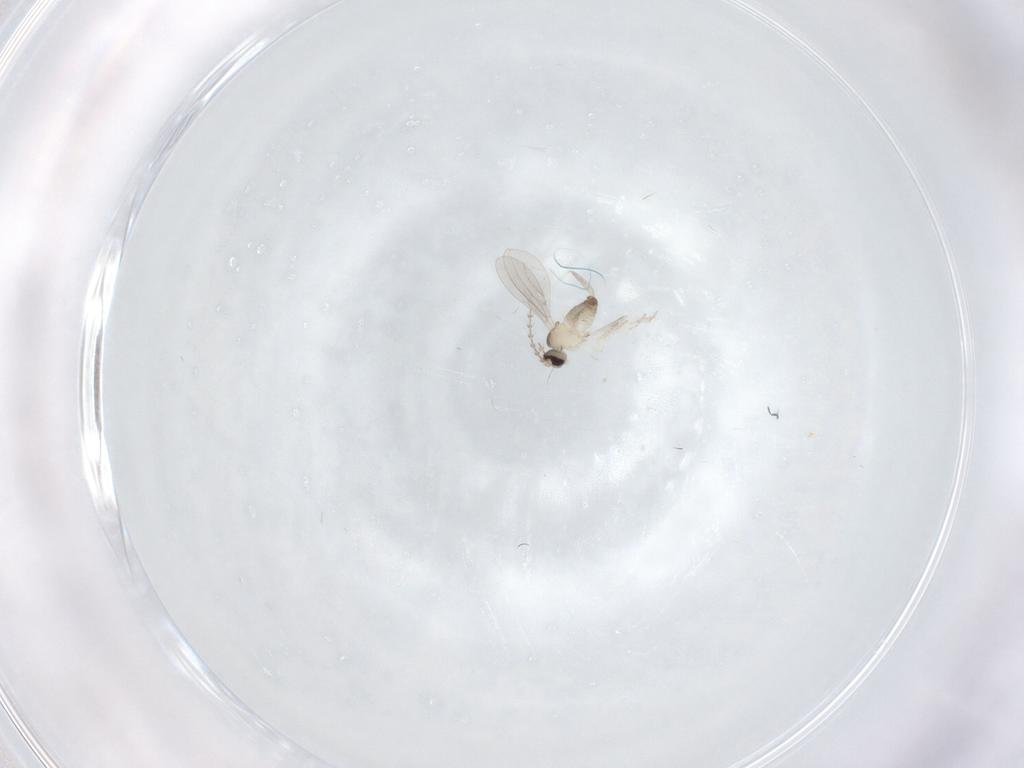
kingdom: Animalia
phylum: Arthropoda
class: Insecta
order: Diptera
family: Cecidomyiidae
